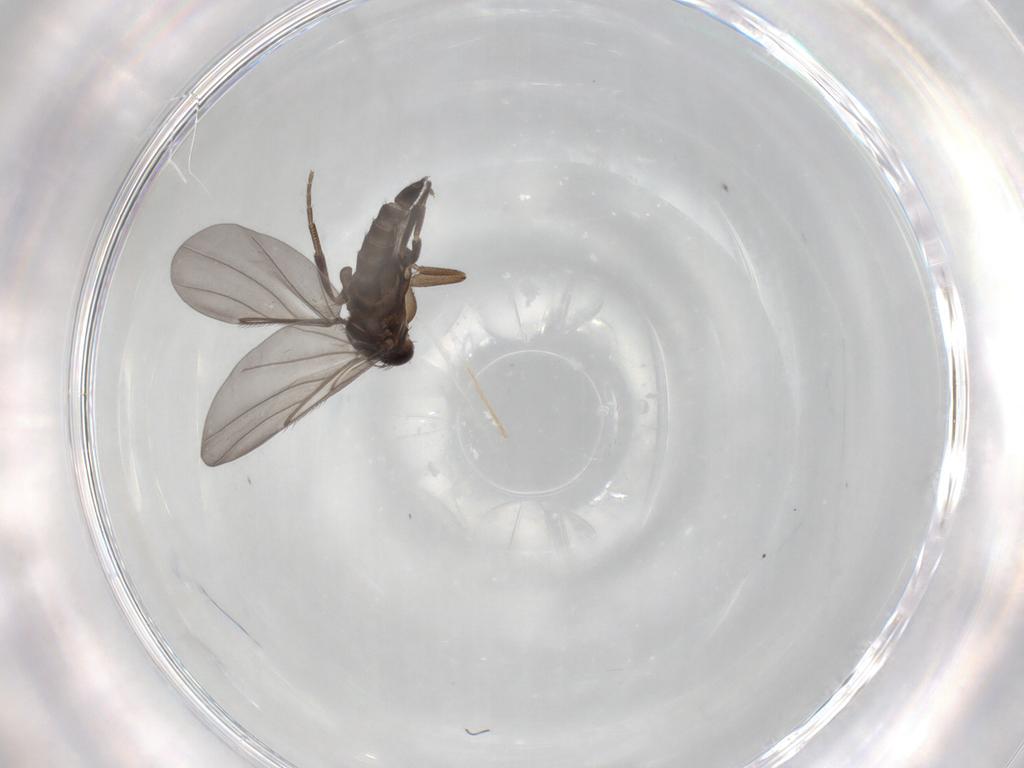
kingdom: Animalia
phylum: Arthropoda
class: Insecta
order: Diptera
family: Phoridae
